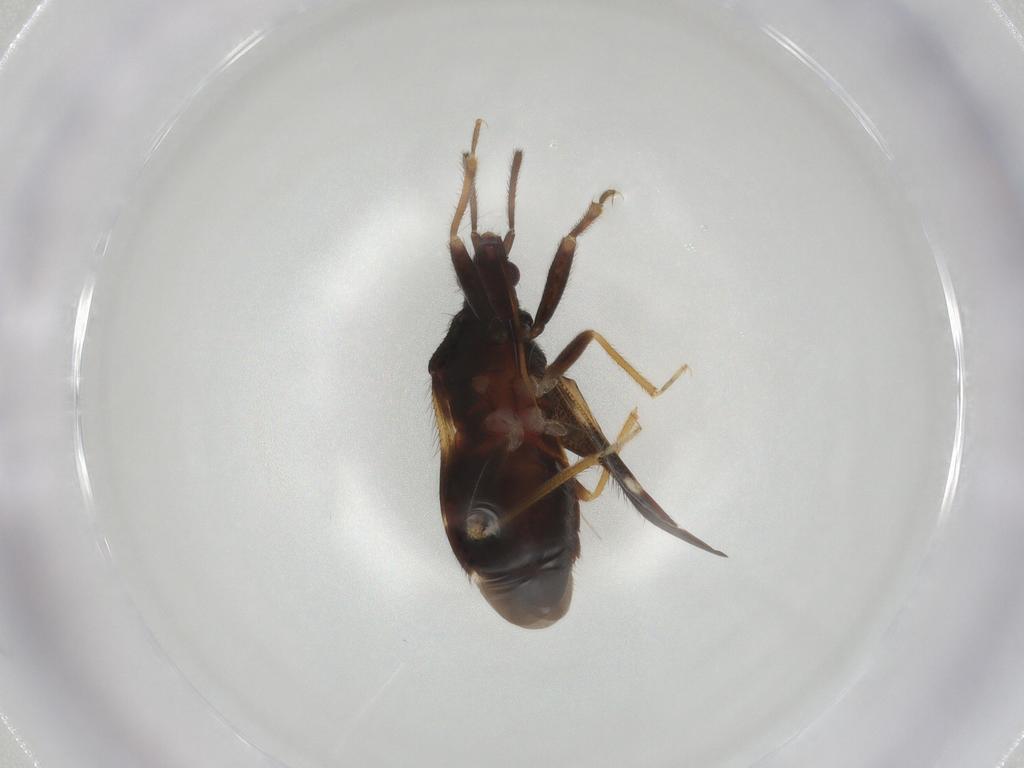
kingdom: Animalia
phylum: Arthropoda
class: Insecta
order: Hemiptera
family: Anthocoridae
